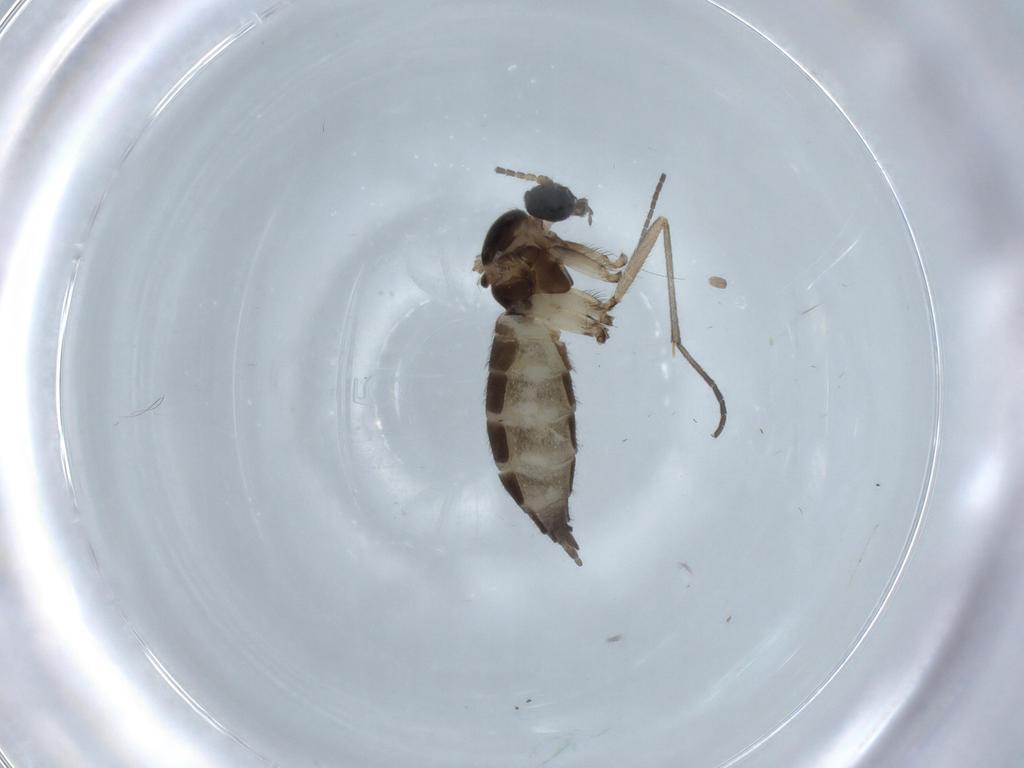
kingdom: Animalia
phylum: Arthropoda
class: Insecta
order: Diptera
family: Sciaridae
